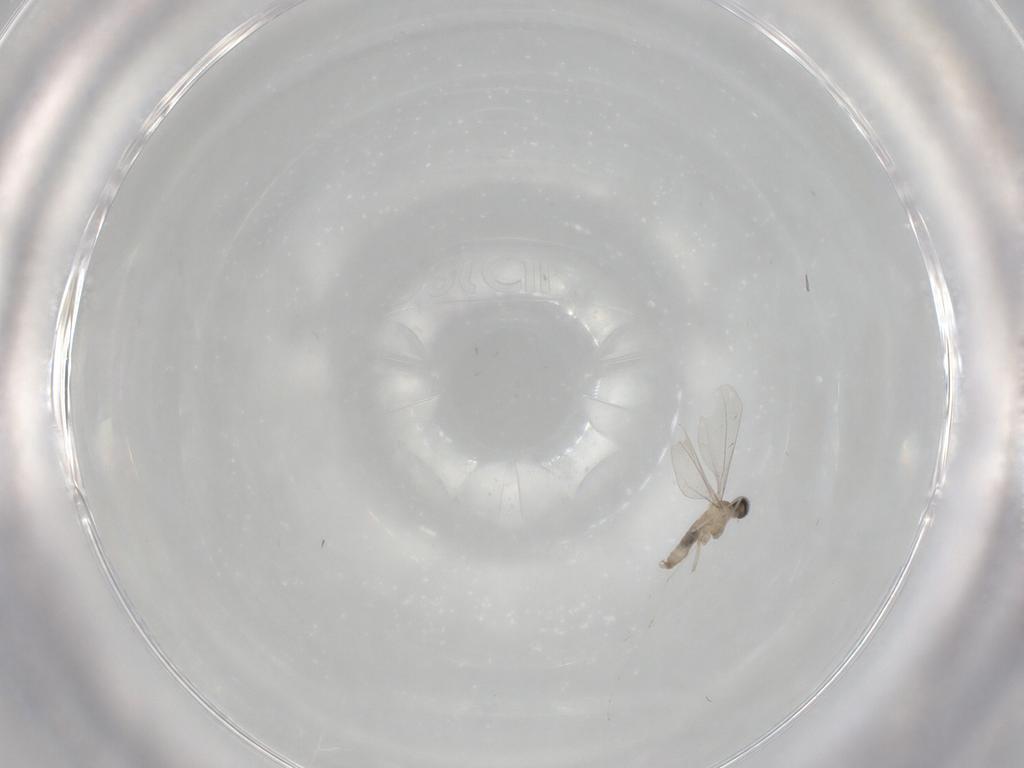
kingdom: Animalia
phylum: Arthropoda
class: Insecta
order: Diptera
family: Cecidomyiidae
